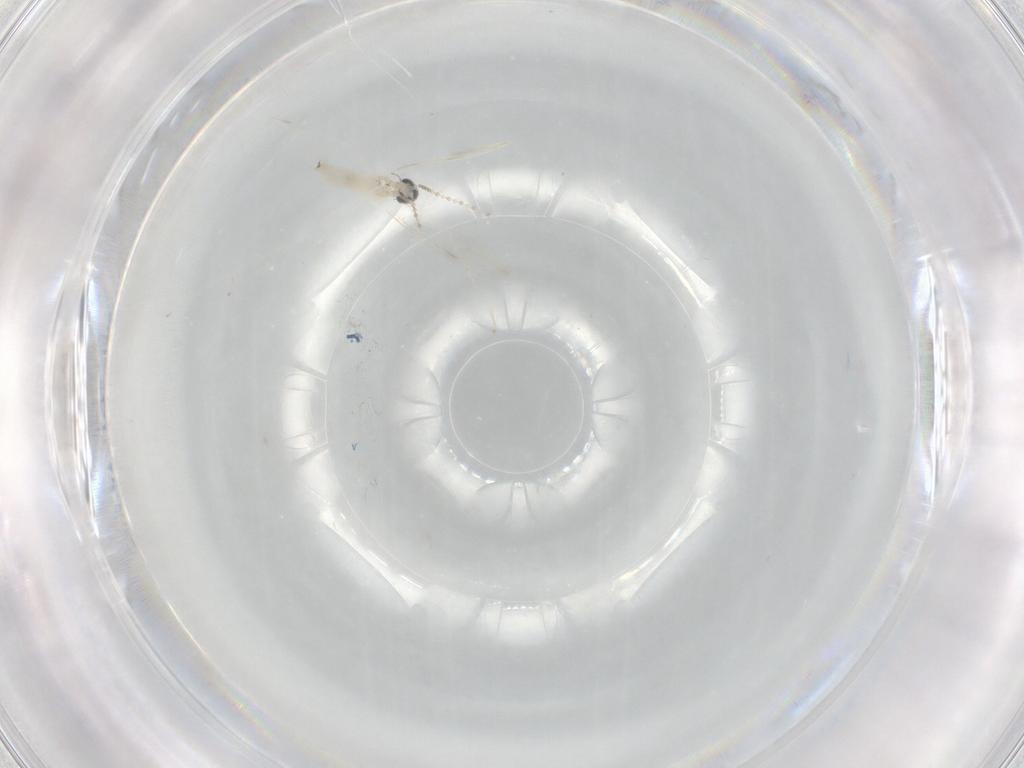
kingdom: Animalia
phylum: Arthropoda
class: Insecta
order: Diptera
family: Cecidomyiidae
